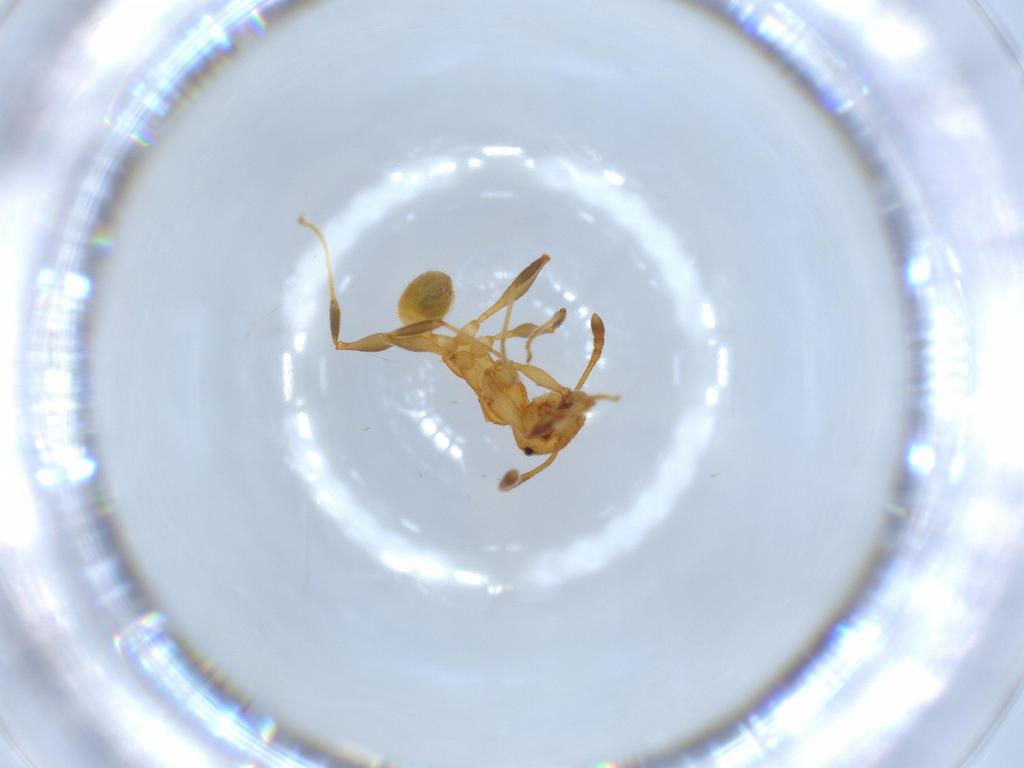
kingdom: Animalia
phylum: Arthropoda
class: Insecta
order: Hymenoptera
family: Formicidae
